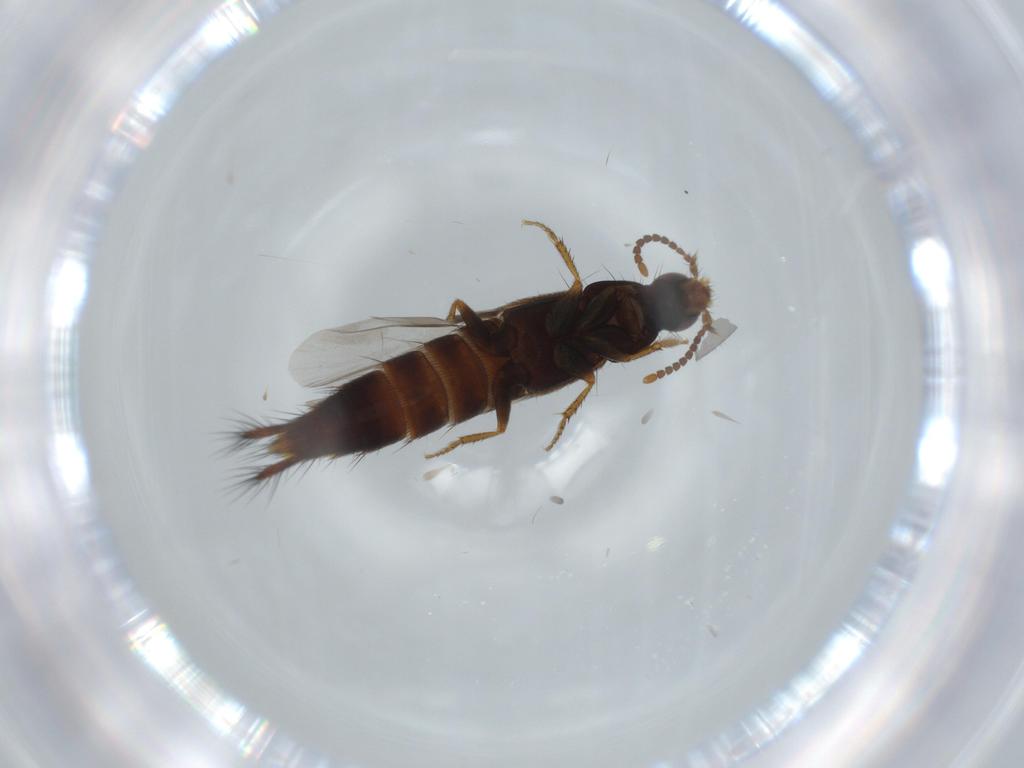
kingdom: Animalia
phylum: Arthropoda
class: Insecta
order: Coleoptera
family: Staphylinidae
